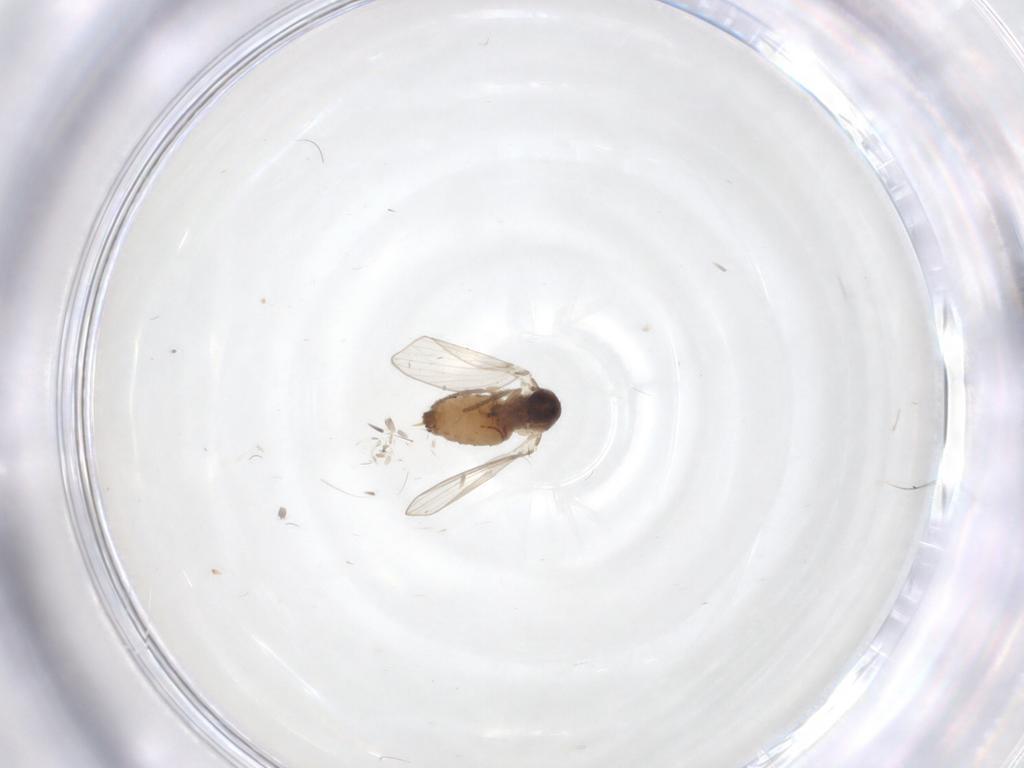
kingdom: Animalia
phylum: Arthropoda
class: Insecta
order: Diptera
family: Psychodidae
